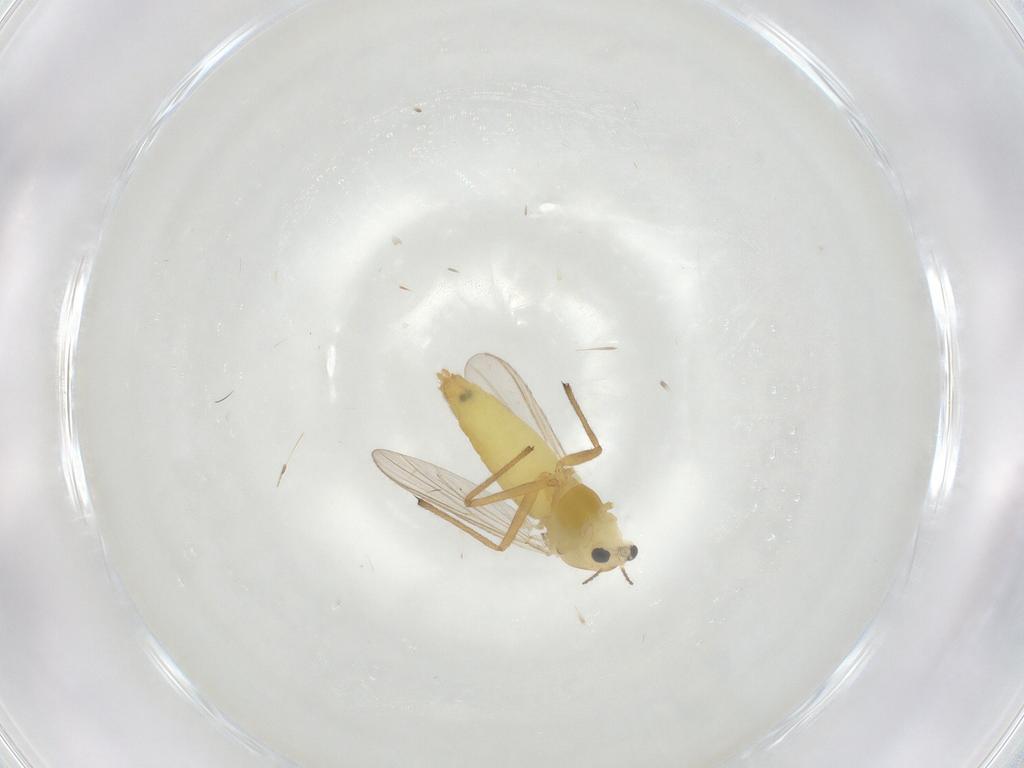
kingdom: Animalia
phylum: Arthropoda
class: Insecta
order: Diptera
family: Chironomidae
